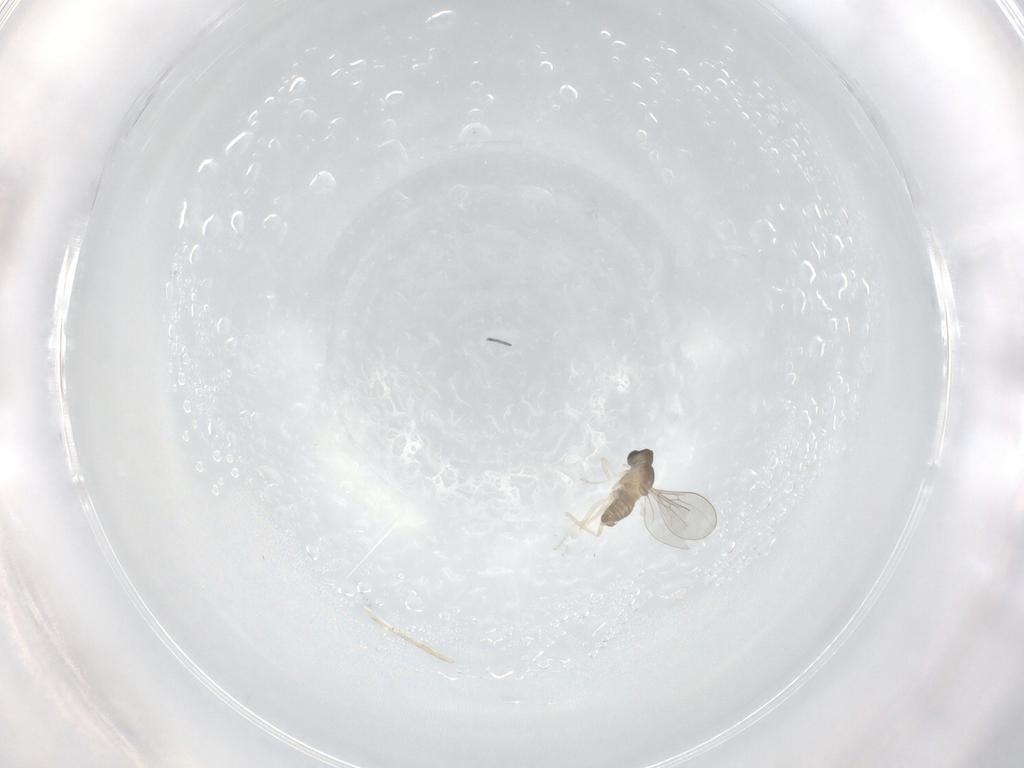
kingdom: Animalia
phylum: Arthropoda
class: Insecta
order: Diptera
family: Cecidomyiidae
